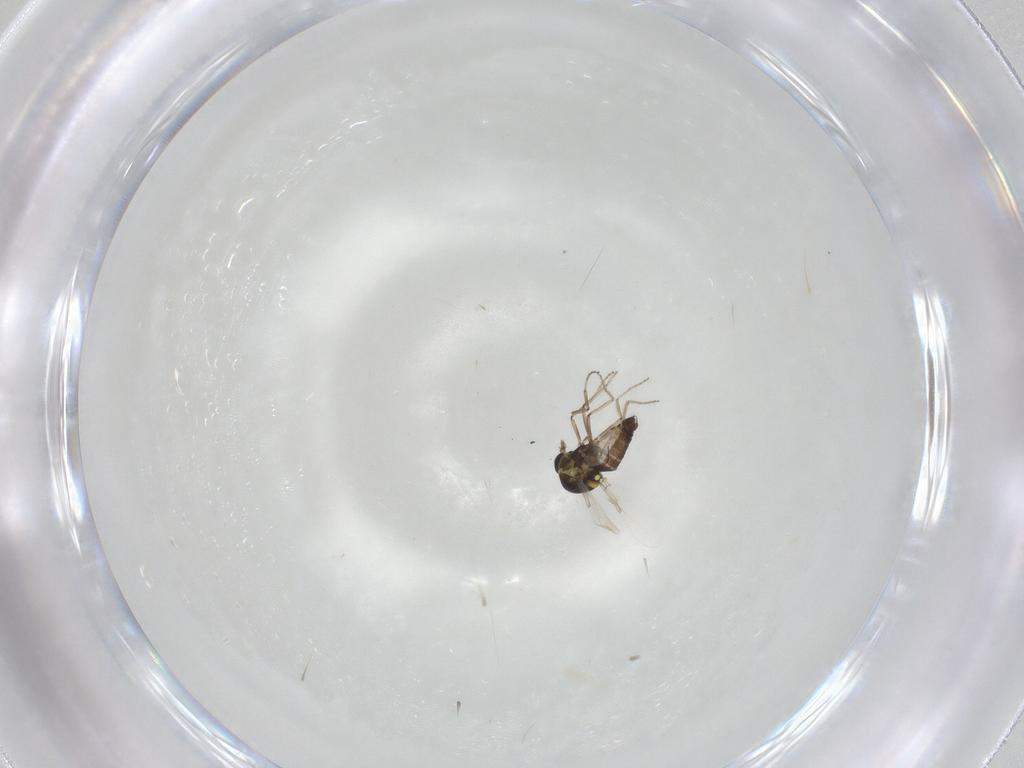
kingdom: Animalia
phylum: Arthropoda
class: Insecta
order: Diptera
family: Ceratopogonidae
